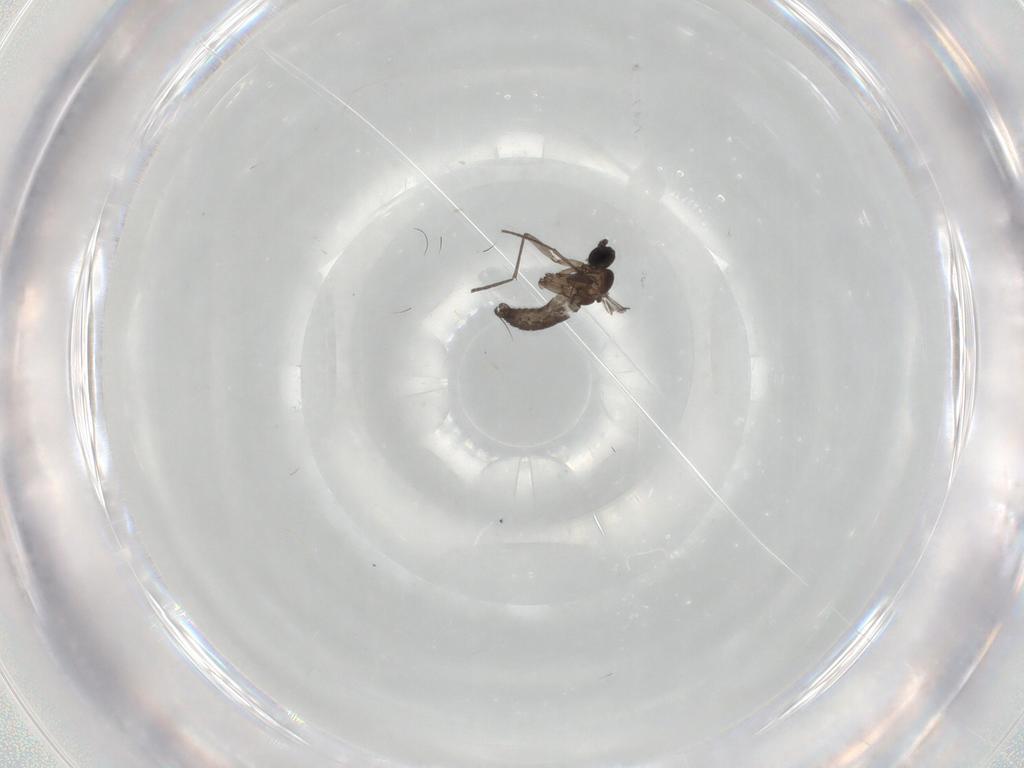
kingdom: Animalia
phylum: Arthropoda
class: Insecta
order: Diptera
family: Sciaridae
